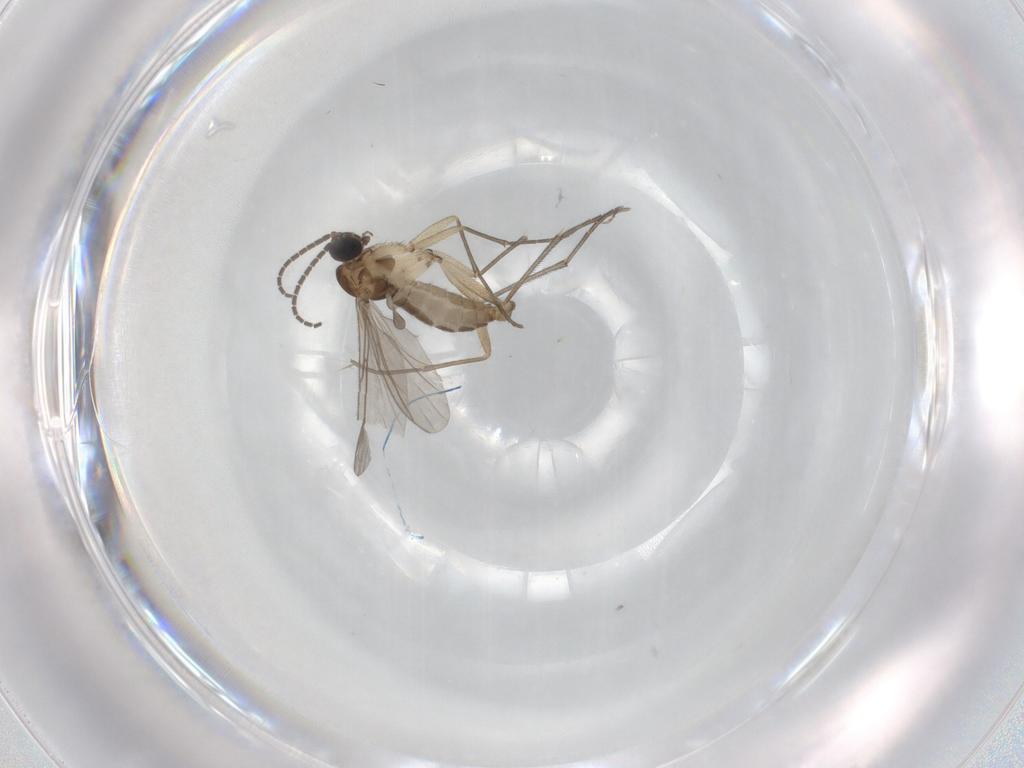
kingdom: Animalia
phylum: Arthropoda
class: Insecta
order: Diptera
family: Sciaridae
